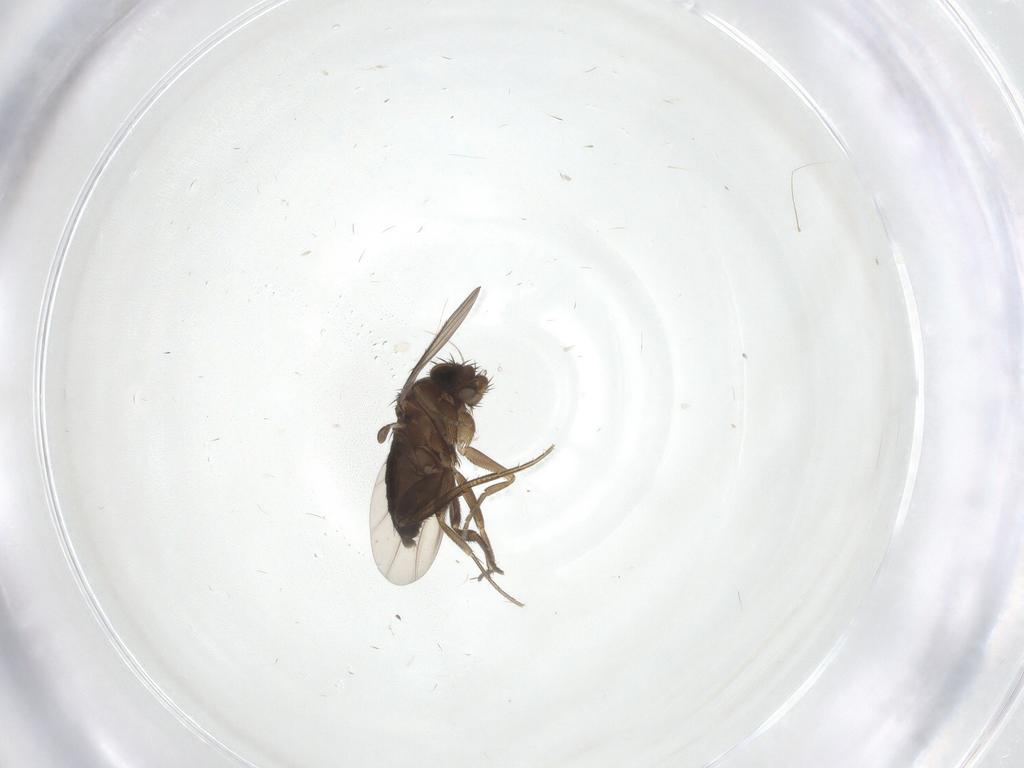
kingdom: Animalia
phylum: Arthropoda
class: Insecta
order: Diptera
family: Phoridae
